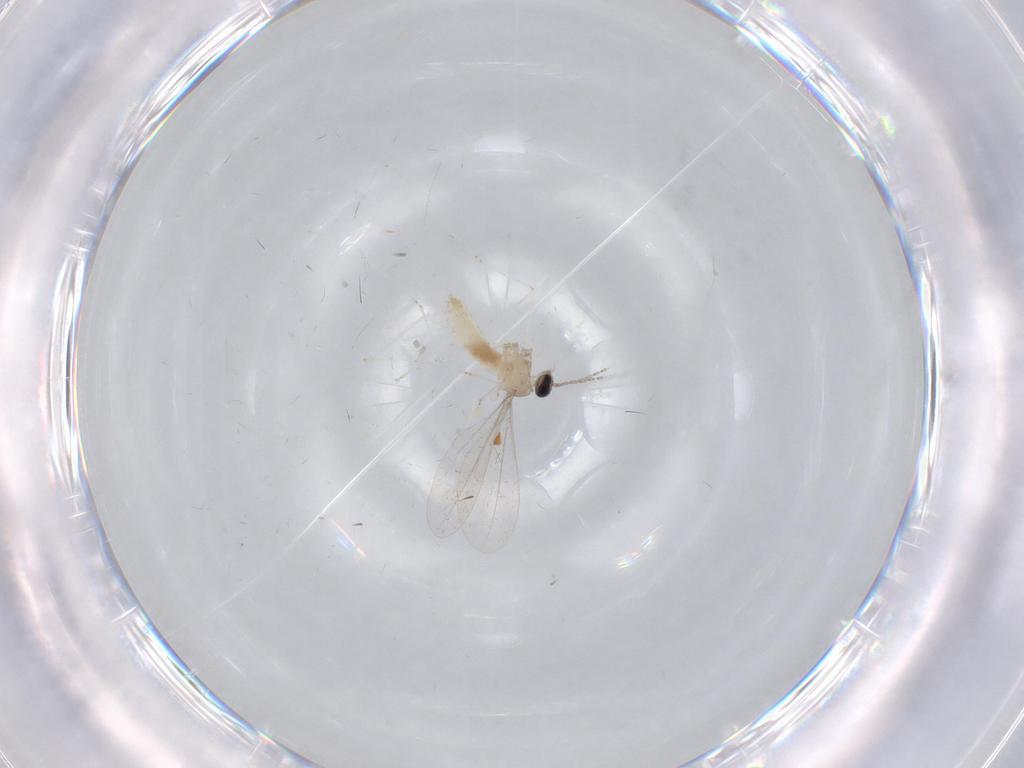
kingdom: Animalia
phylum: Arthropoda
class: Insecta
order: Diptera
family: Cecidomyiidae
